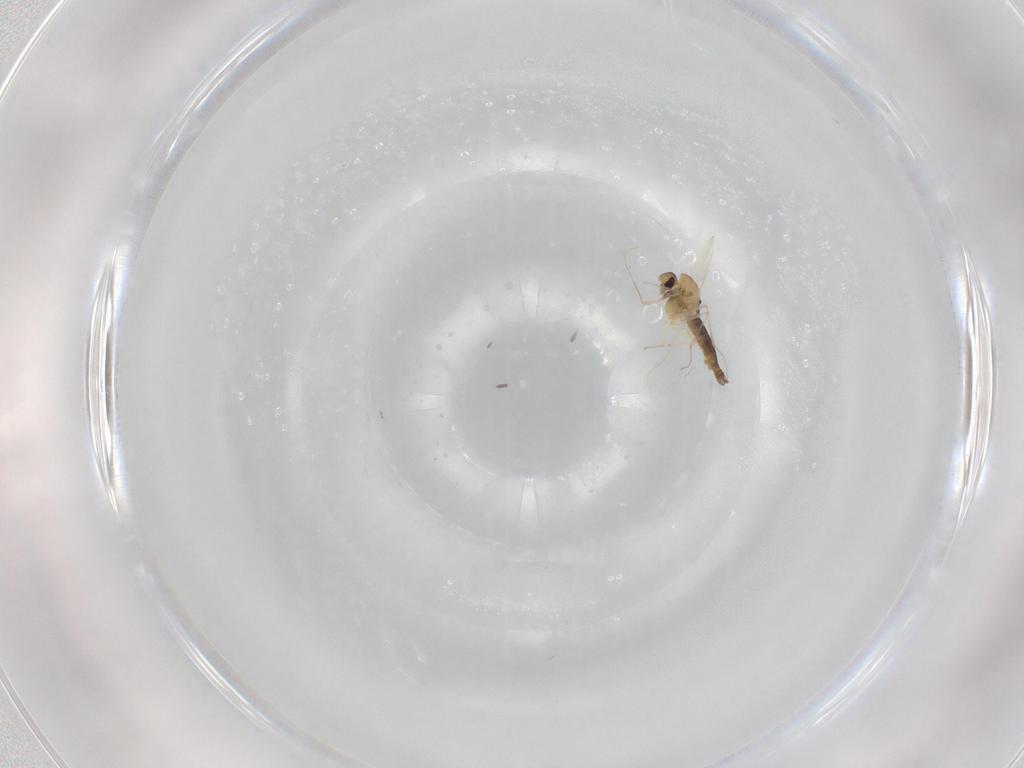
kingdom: Animalia
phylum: Arthropoda
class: Insecta
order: Diptera
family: Chironomidae
